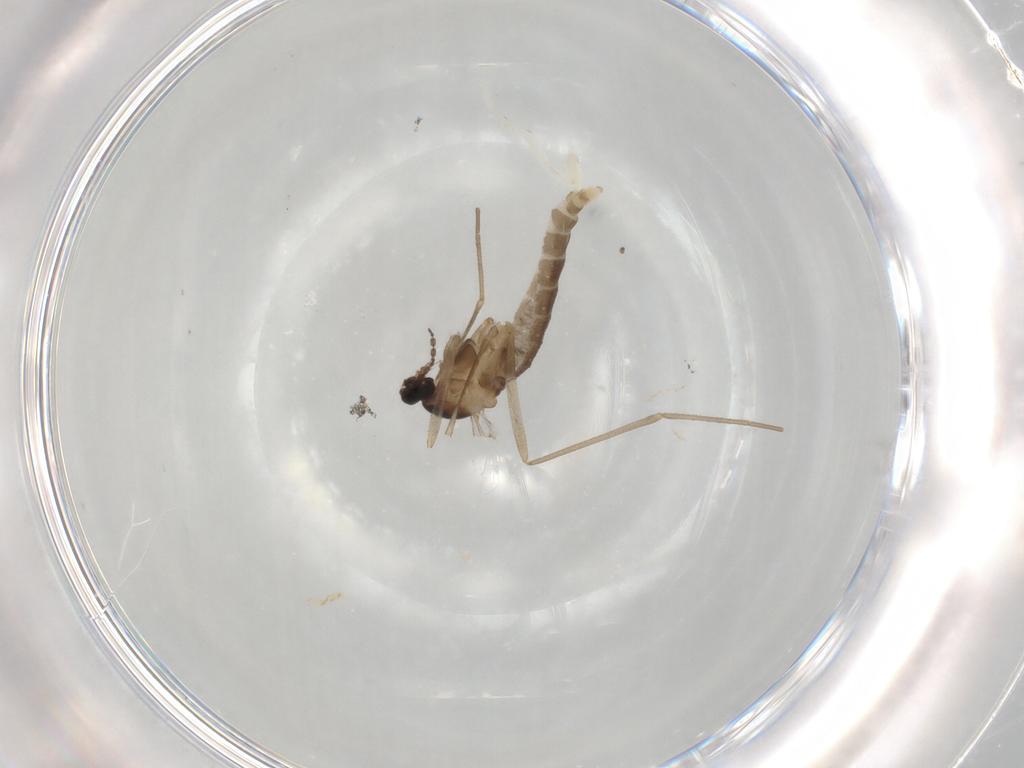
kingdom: Animalia
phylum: Arthropoda
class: Insecta
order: Diptera
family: Cecidomyiidae
